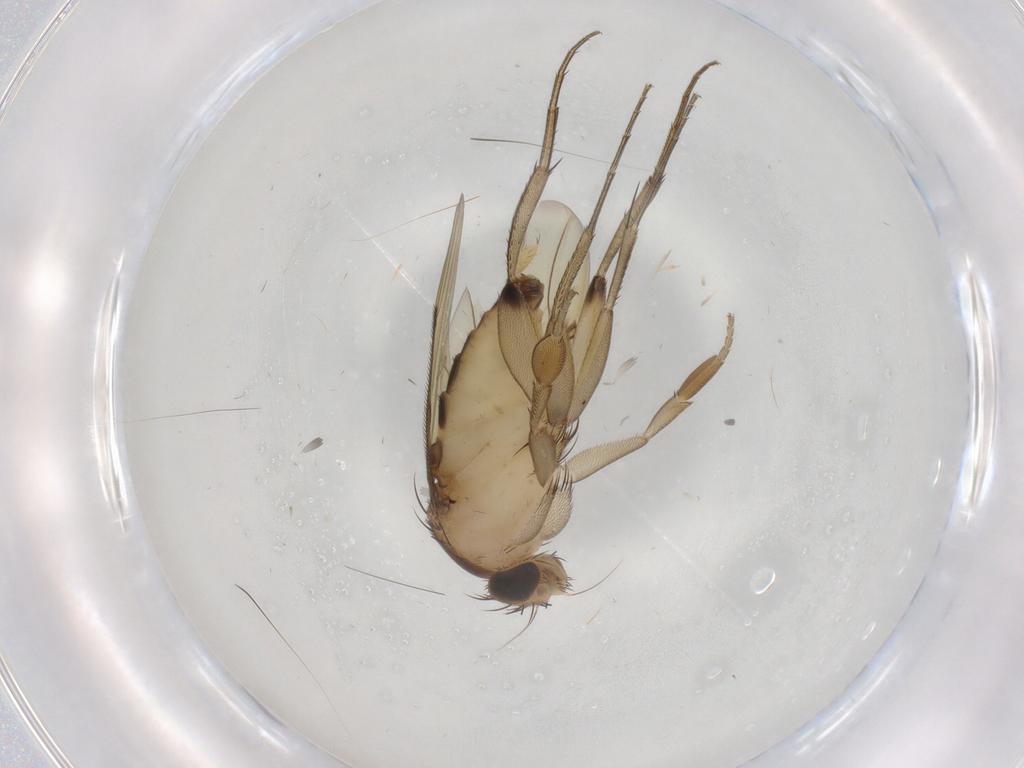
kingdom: Animalia
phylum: Arthropoda
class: Insecta
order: Diptera
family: Phoridae
